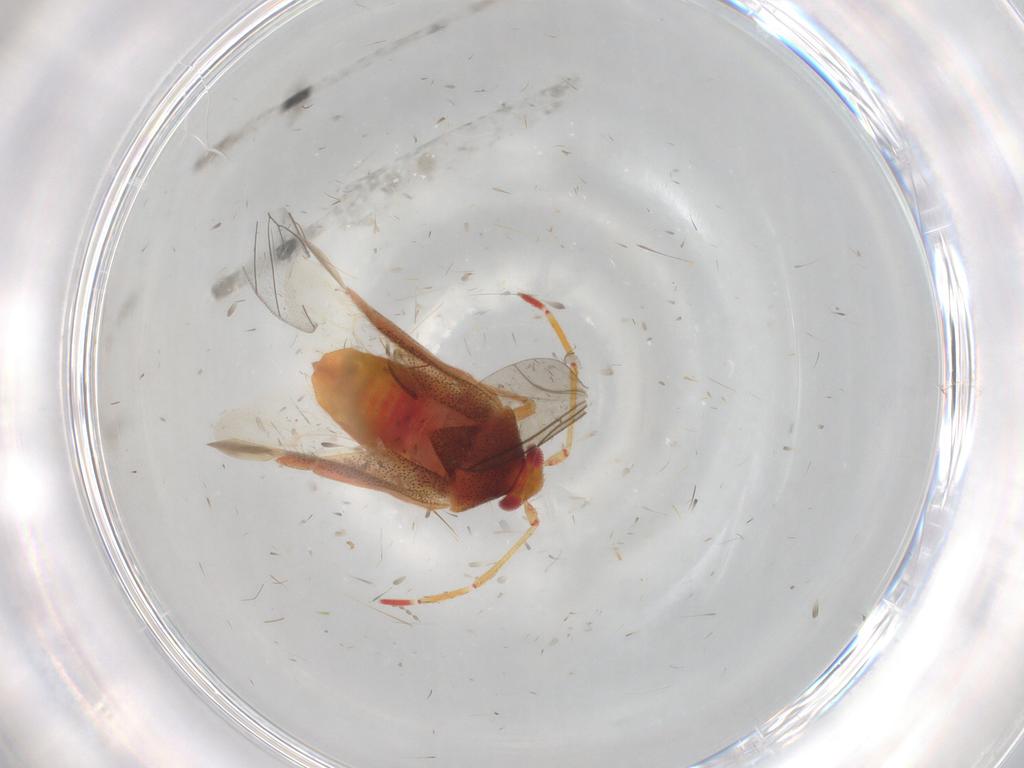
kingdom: Animalia
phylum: Arthropoda
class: Insecta
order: Hemiptera
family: Miridae
